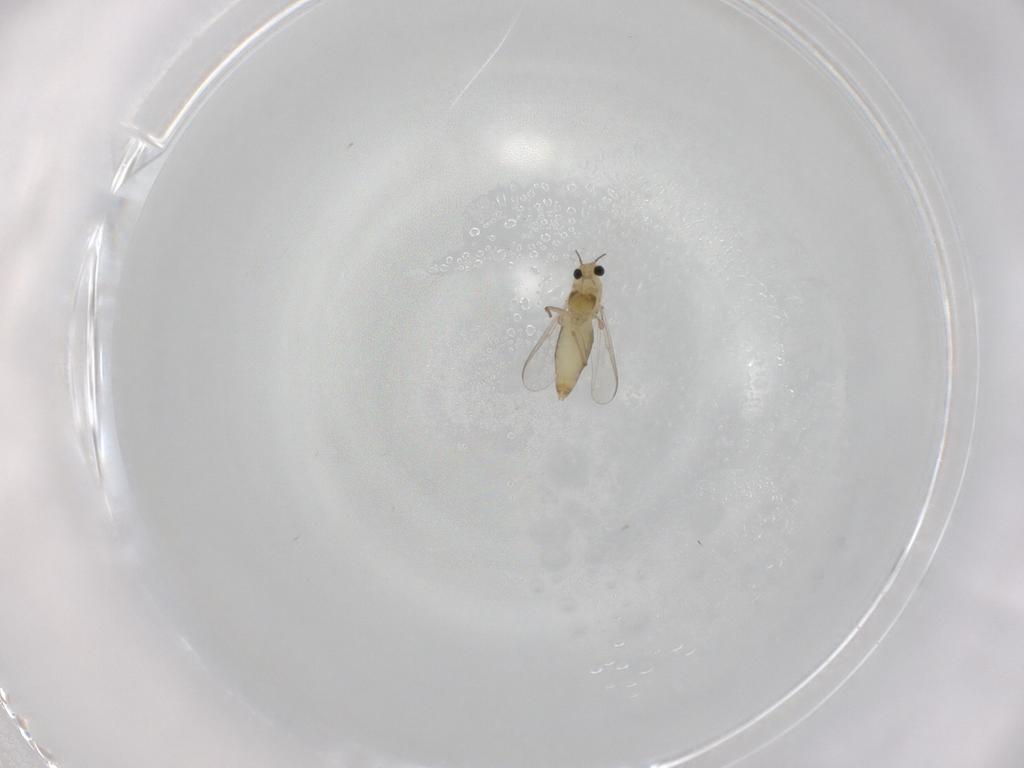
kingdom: Animalia
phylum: Arthropoda
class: Insecta
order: Diptera
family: Chironomidae
